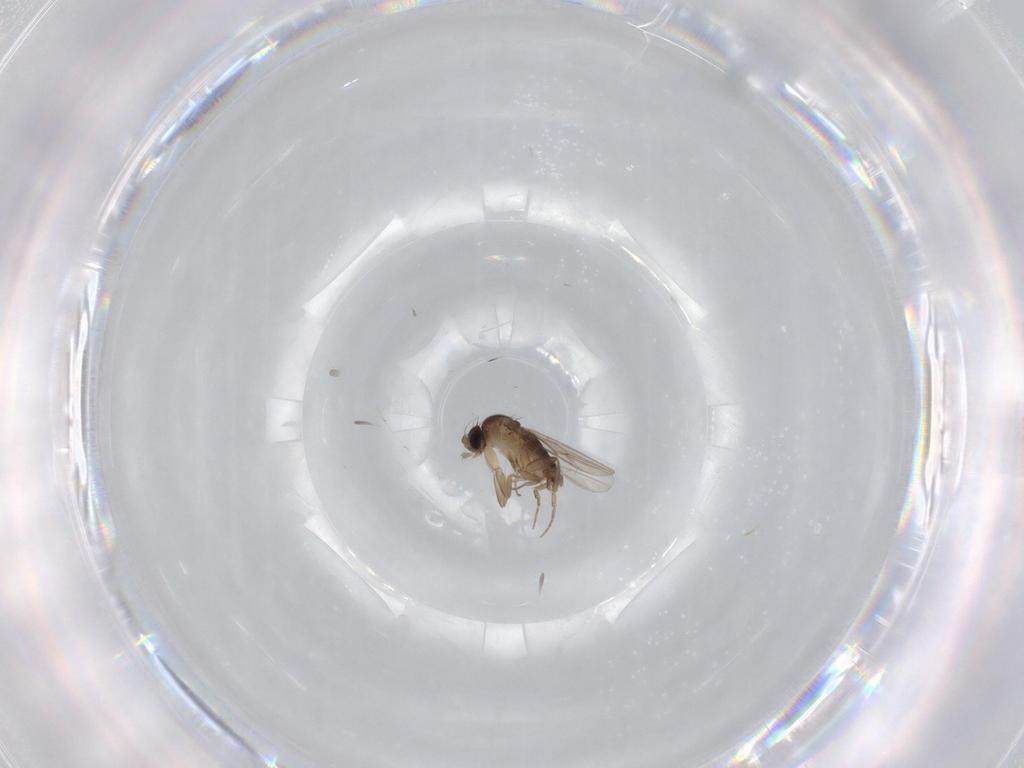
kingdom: Animalia
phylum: Arthropoda
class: Insecta
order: Diptera
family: Phoridae
